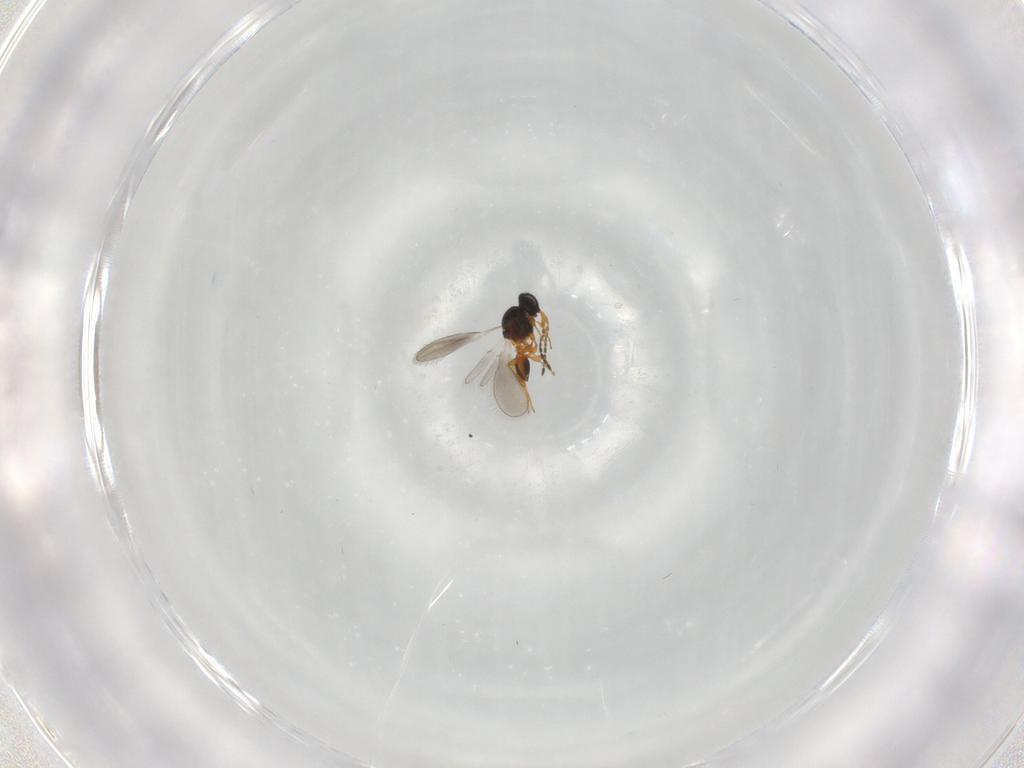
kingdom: Animalia
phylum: Arthropoda
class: Insecta
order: Hymenoptera
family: Platygastridae
